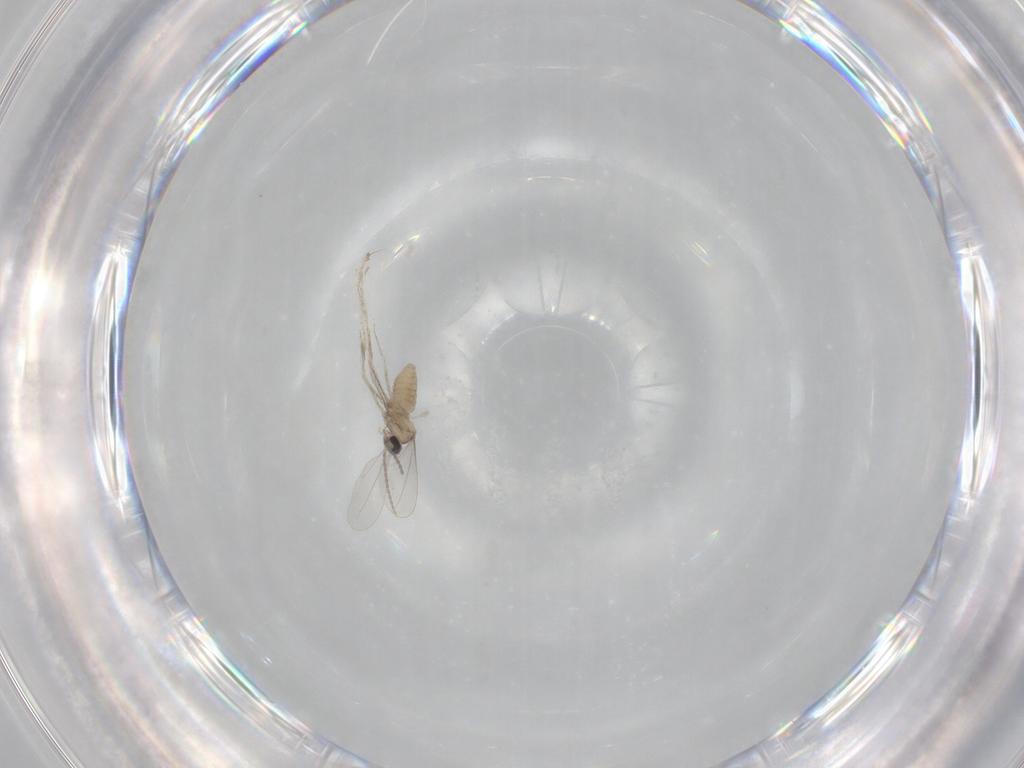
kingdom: Animalia
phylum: Arthropoda
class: Insecta
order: Diptera
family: Cecidomyiidae
